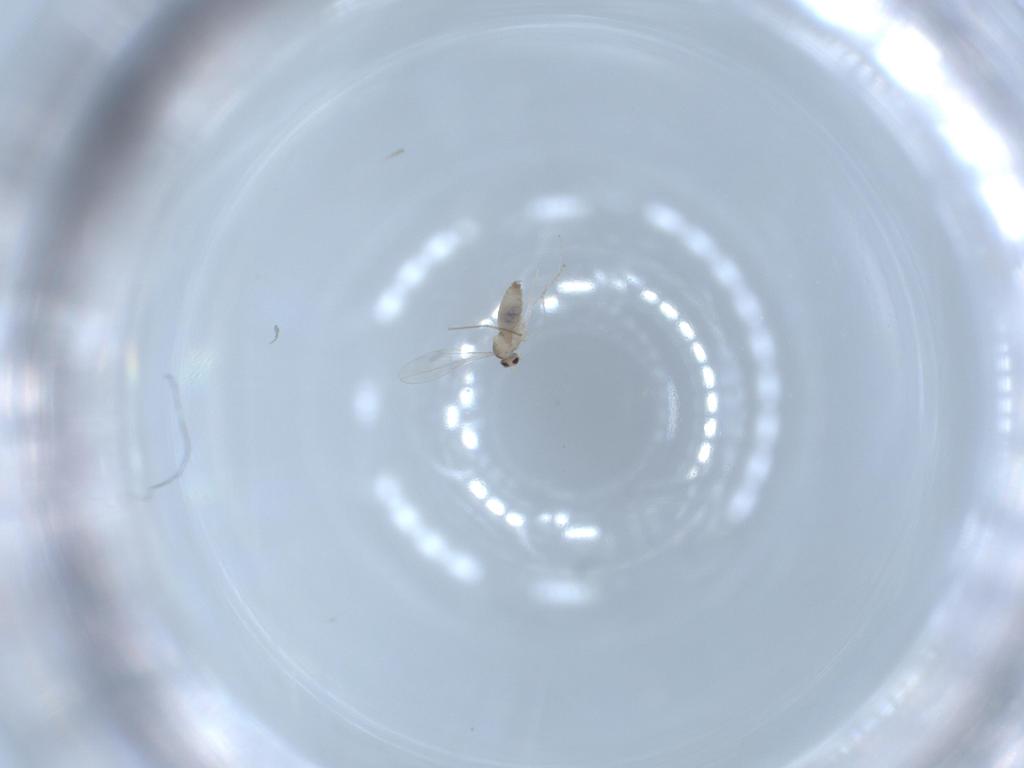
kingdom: Animalia
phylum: Arthropoda
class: Insecta
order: Diptera
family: Cecidomyiidae
